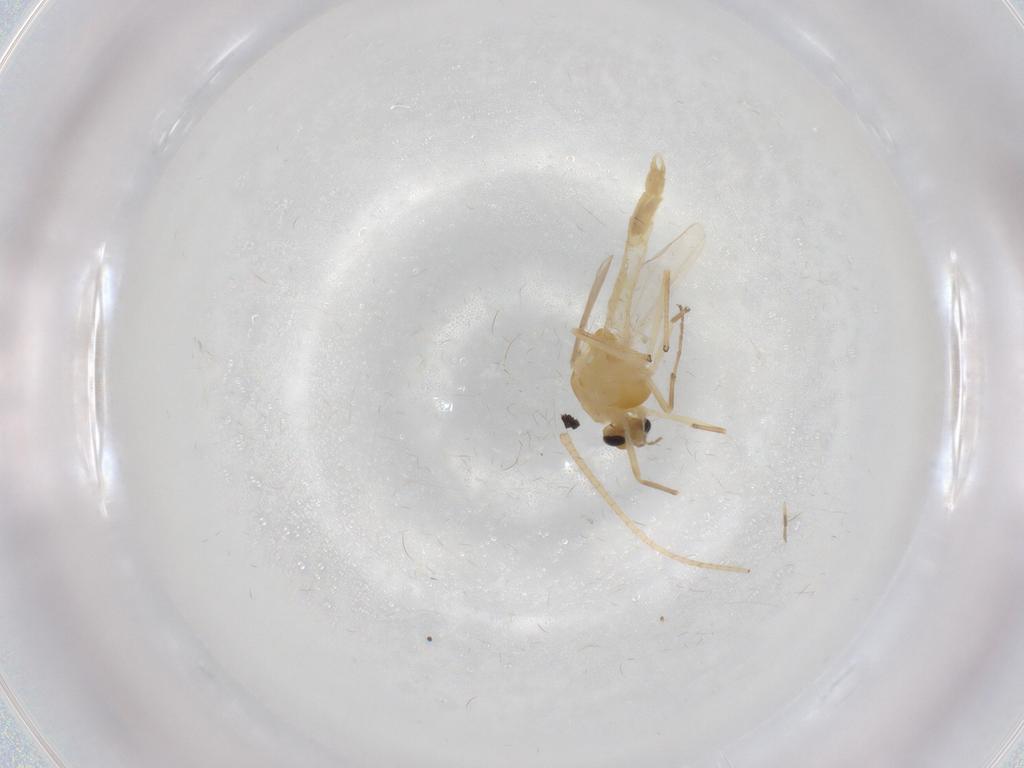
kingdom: Animalia
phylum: Arthropoda
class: Insecta
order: Diptera
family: Chironomidae
